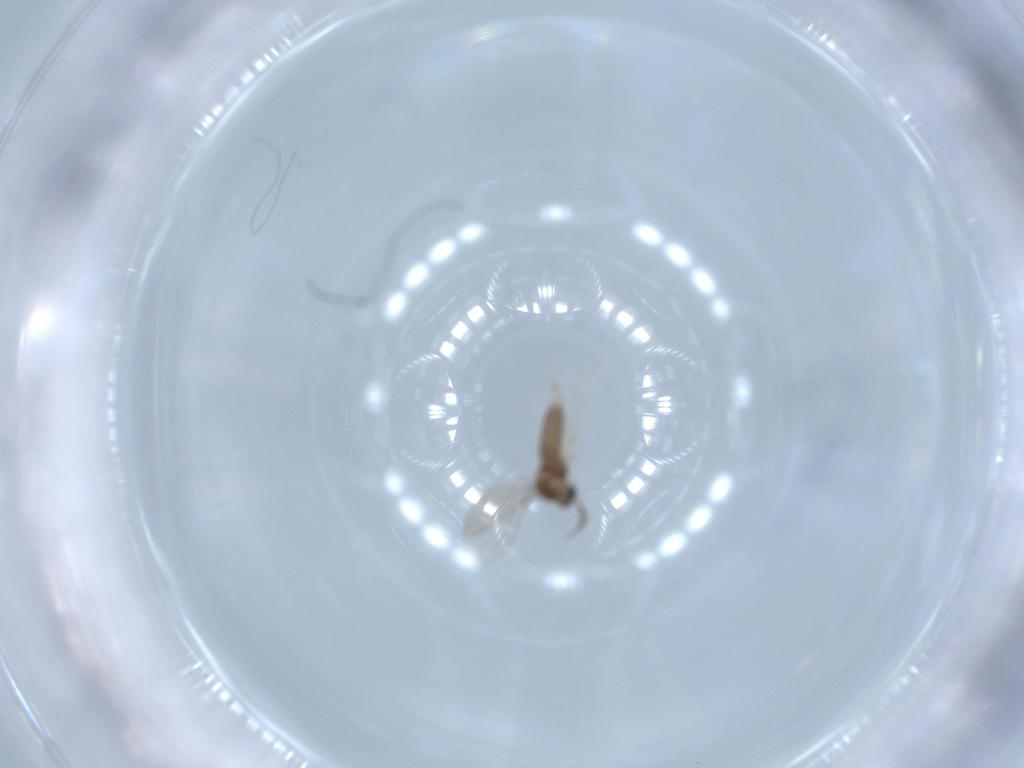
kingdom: Animalia
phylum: Arthropoda
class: Insecta
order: Diptera
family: Cecidomyiidae
